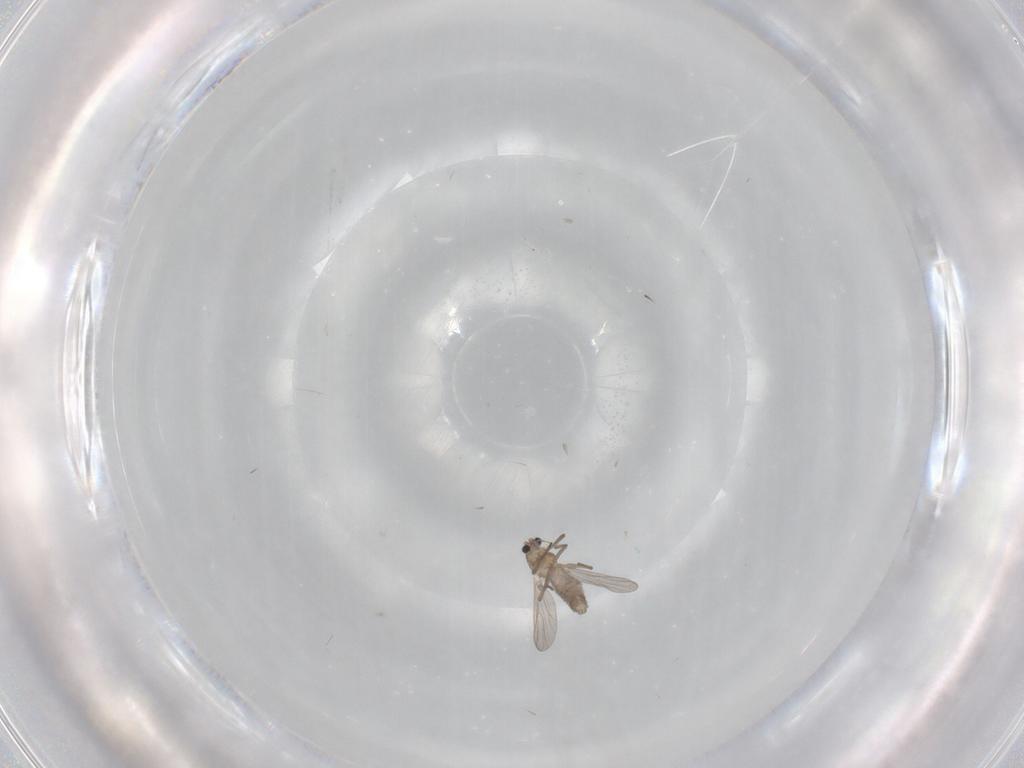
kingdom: Animalia
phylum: Arthropoda
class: Insecta
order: Diptera
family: Chironomidae
